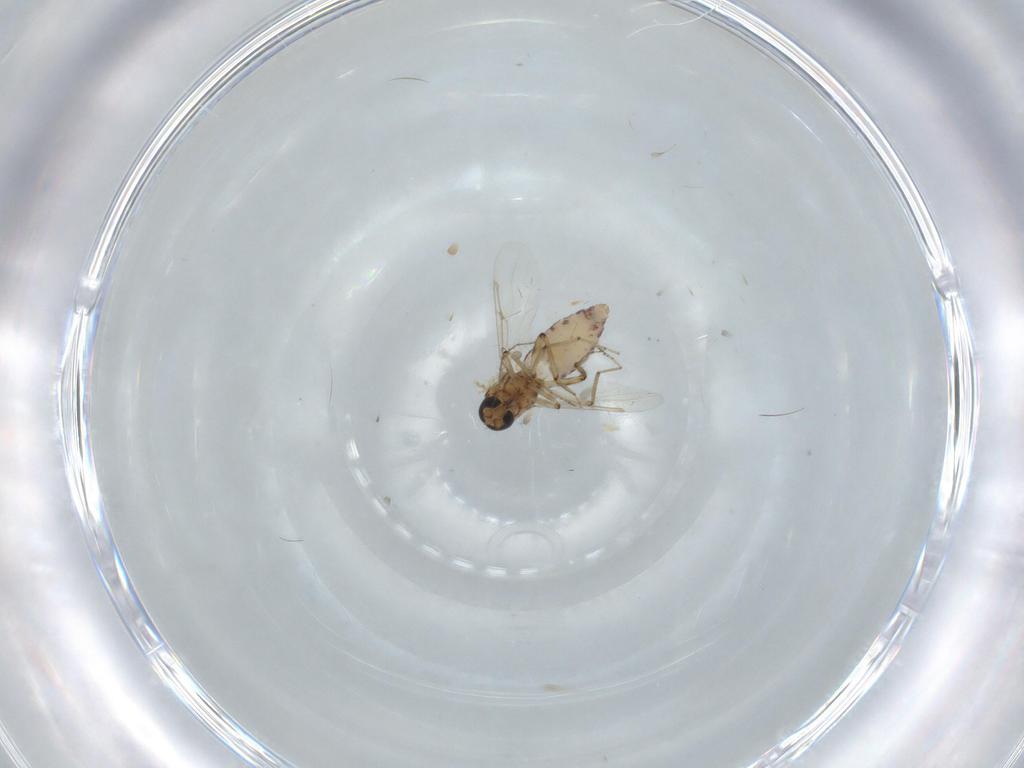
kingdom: Animalia
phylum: Arthropoda
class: Insecta
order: Diptera
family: Ceratopogonidae
